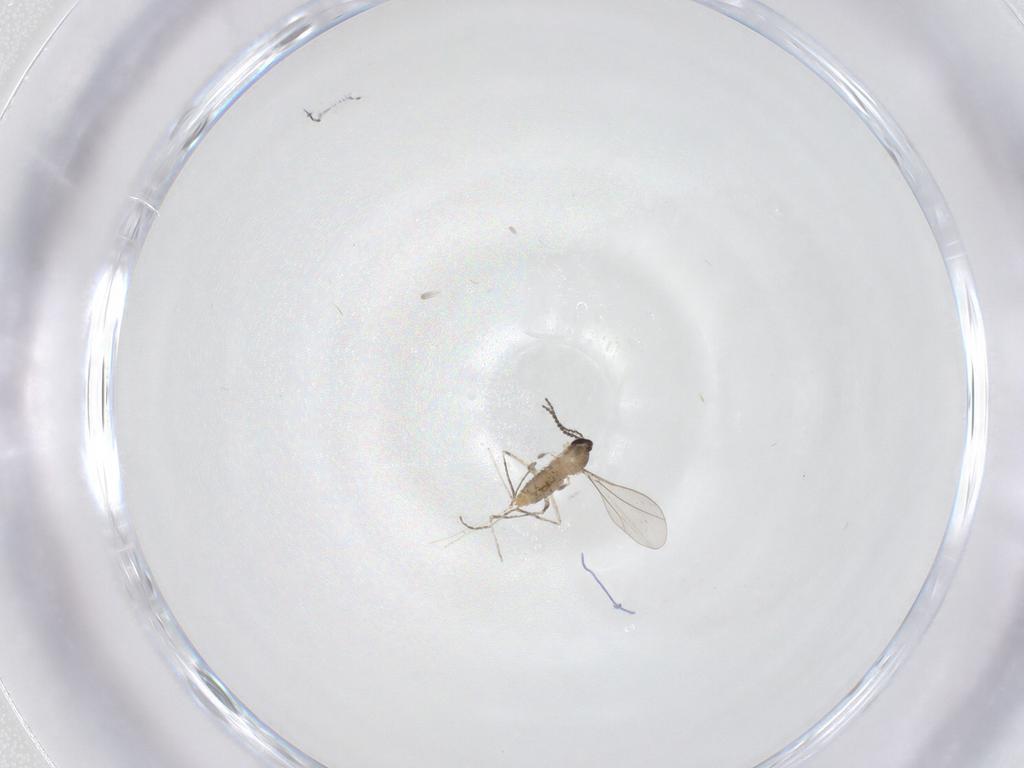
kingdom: Animalia
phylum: Arthropoda
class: Insecta
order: Diptera
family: Cecidomyiidae
